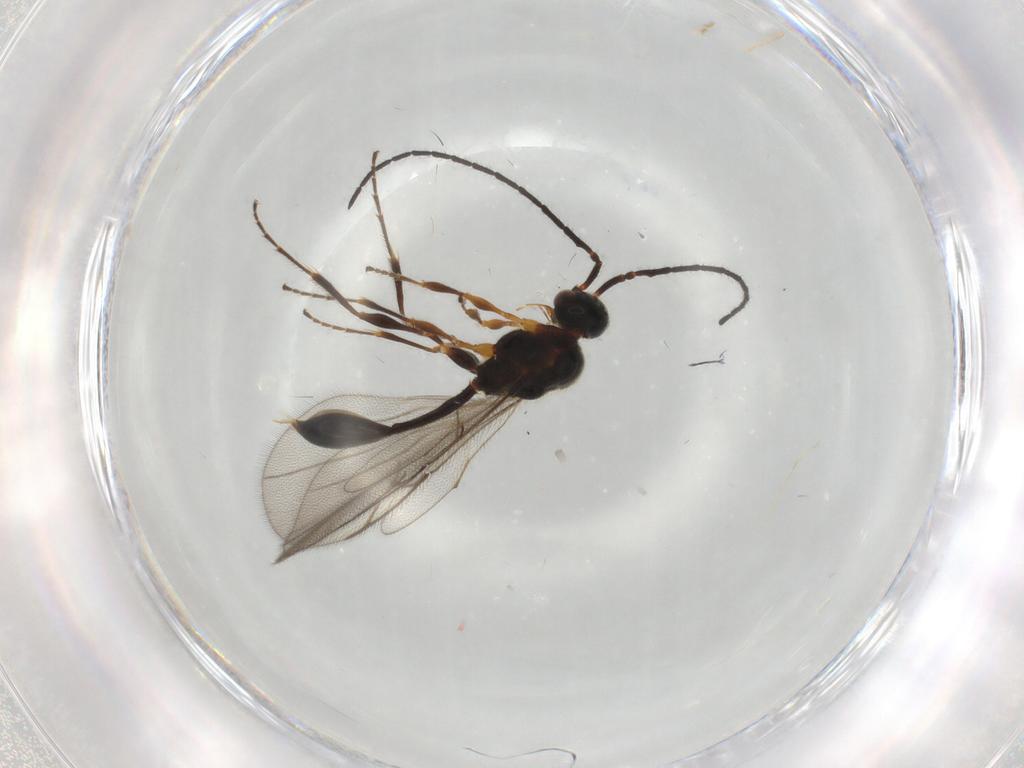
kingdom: Animalia
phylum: Arthropoda
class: Insecta
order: Hymenoptera
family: Diapriidae
